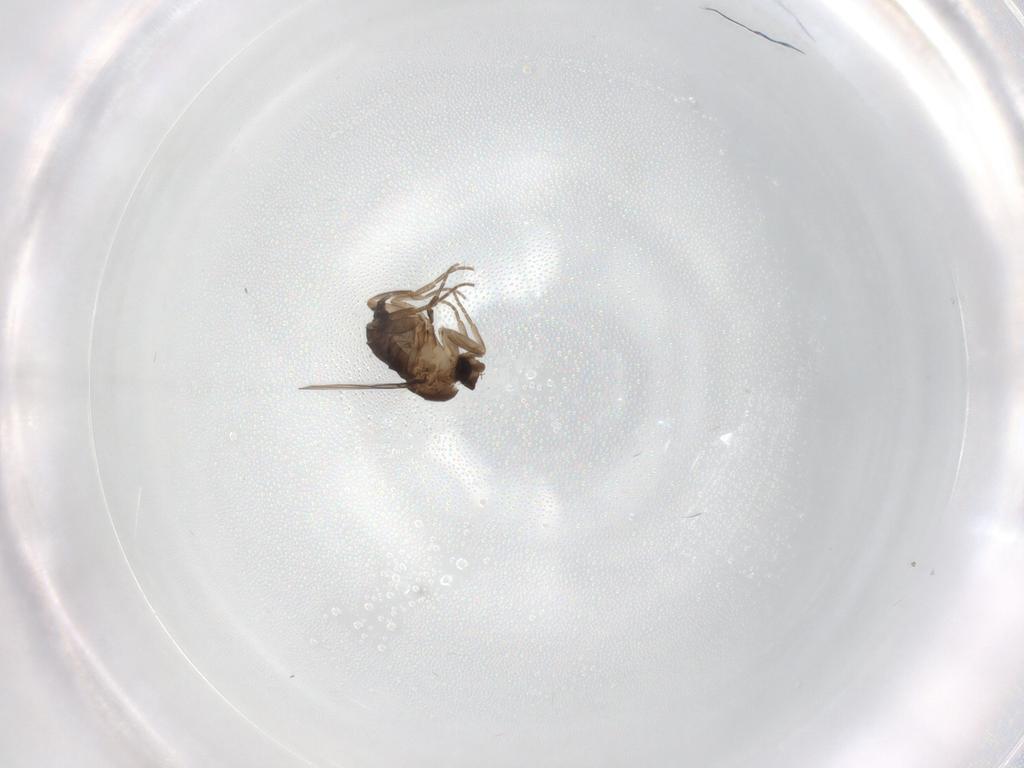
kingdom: Animalia
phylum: Arthropoda
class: Insecta
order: Diptera
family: Phoridae
